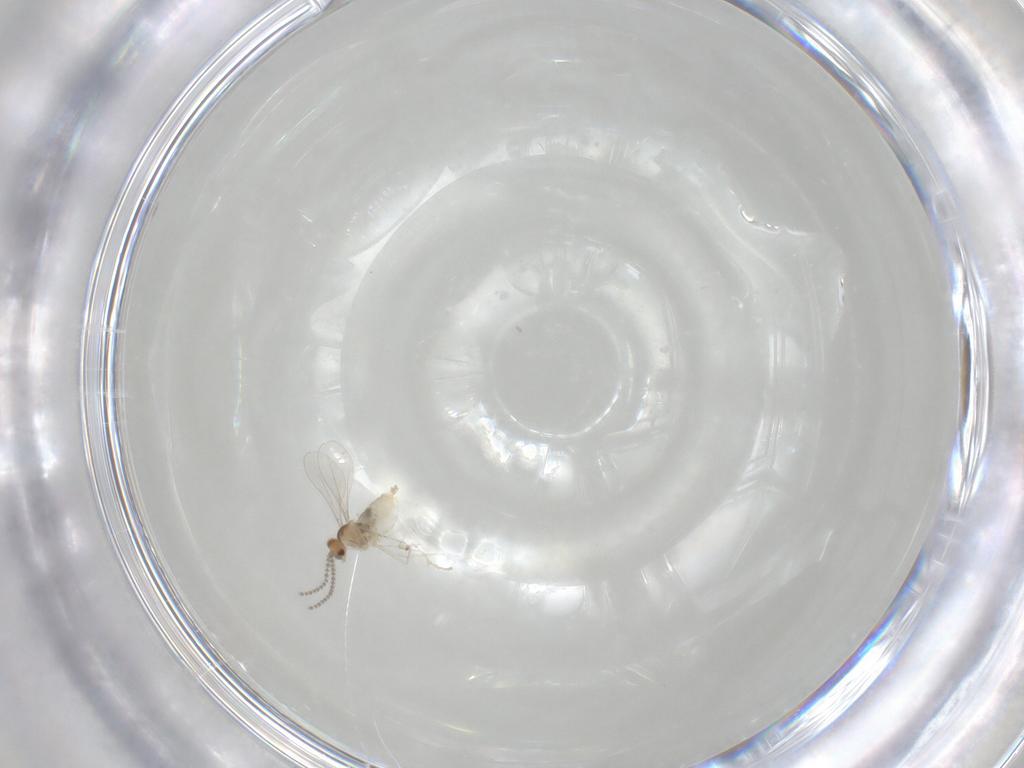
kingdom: Animalia
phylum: Arthropoda
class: Insecta
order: Diptera
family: Cecidomyiidae
